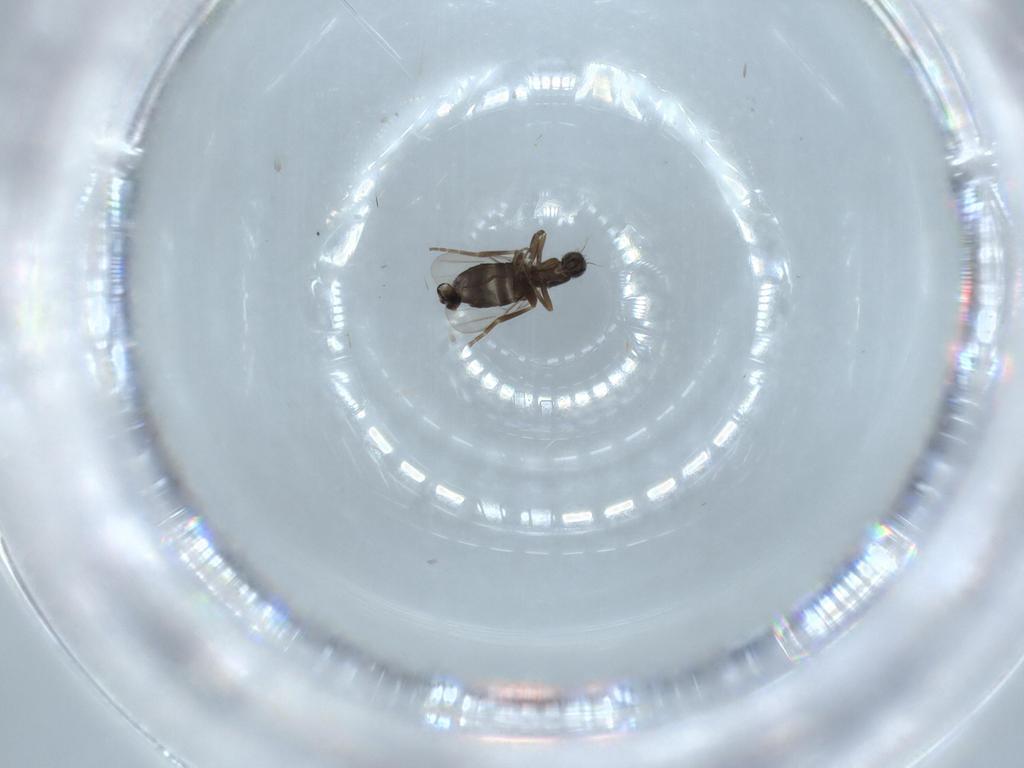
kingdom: Animalia
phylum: Arthropoda
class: Insecta
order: Diptera
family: Phoridae
